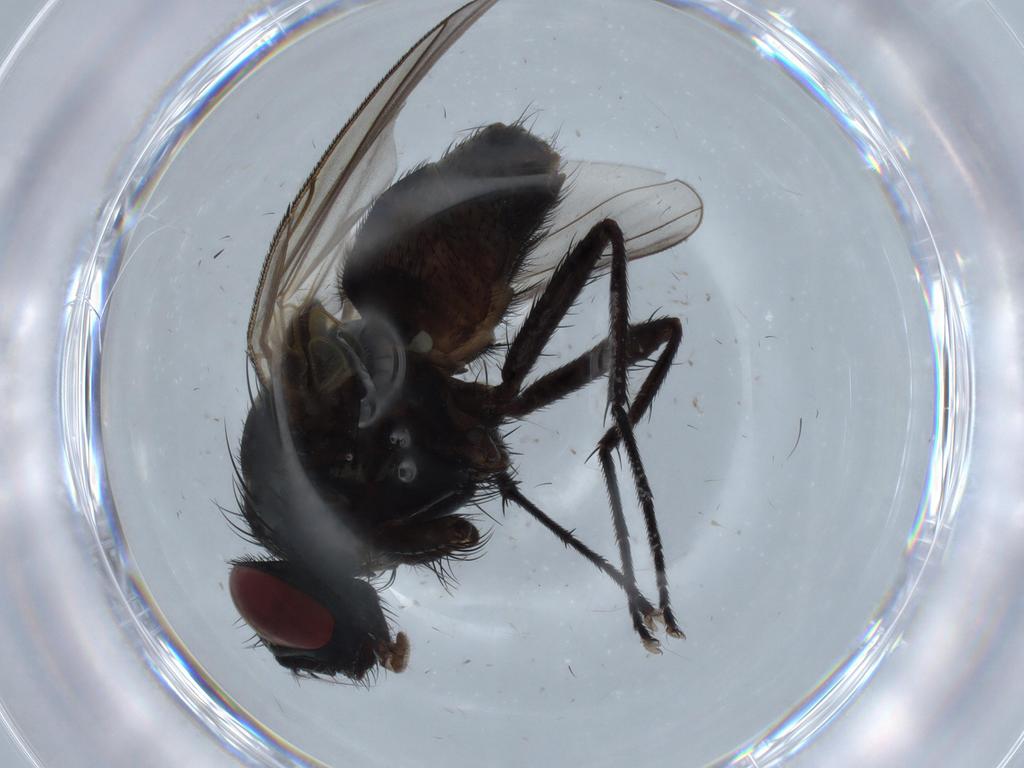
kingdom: Animalia
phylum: Arthropoda
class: Insecta
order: Diptera
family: Muscidae
